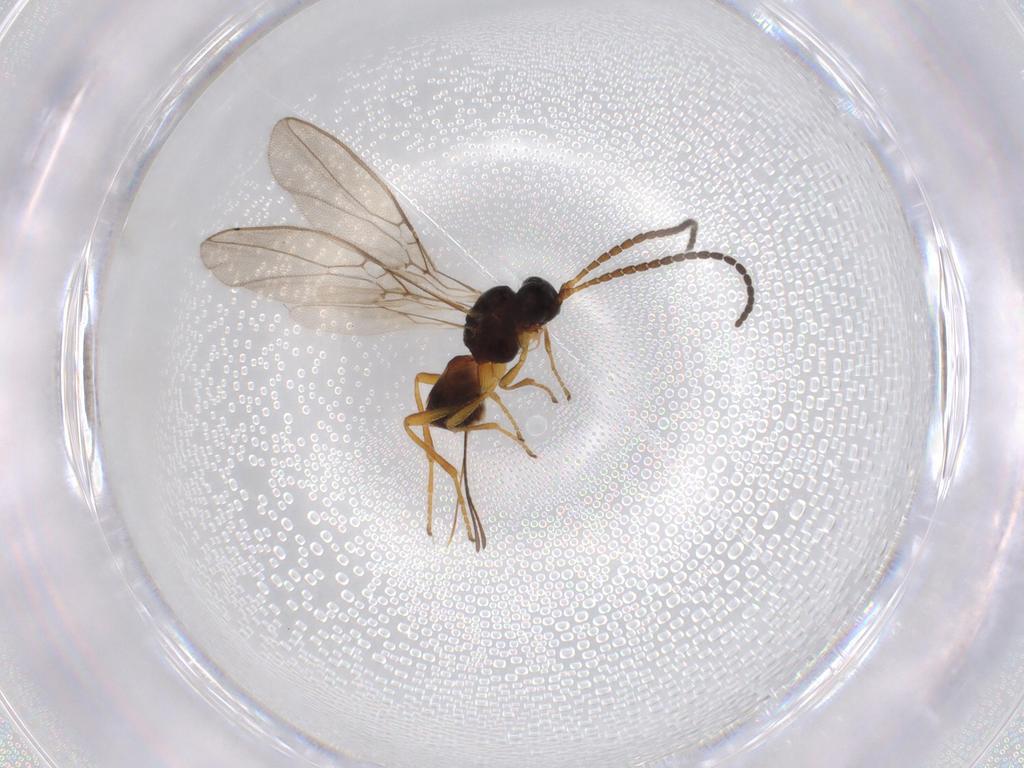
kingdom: Animalia
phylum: Arthropoda
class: Insecta
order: Hymenoptera
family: Braconidae
